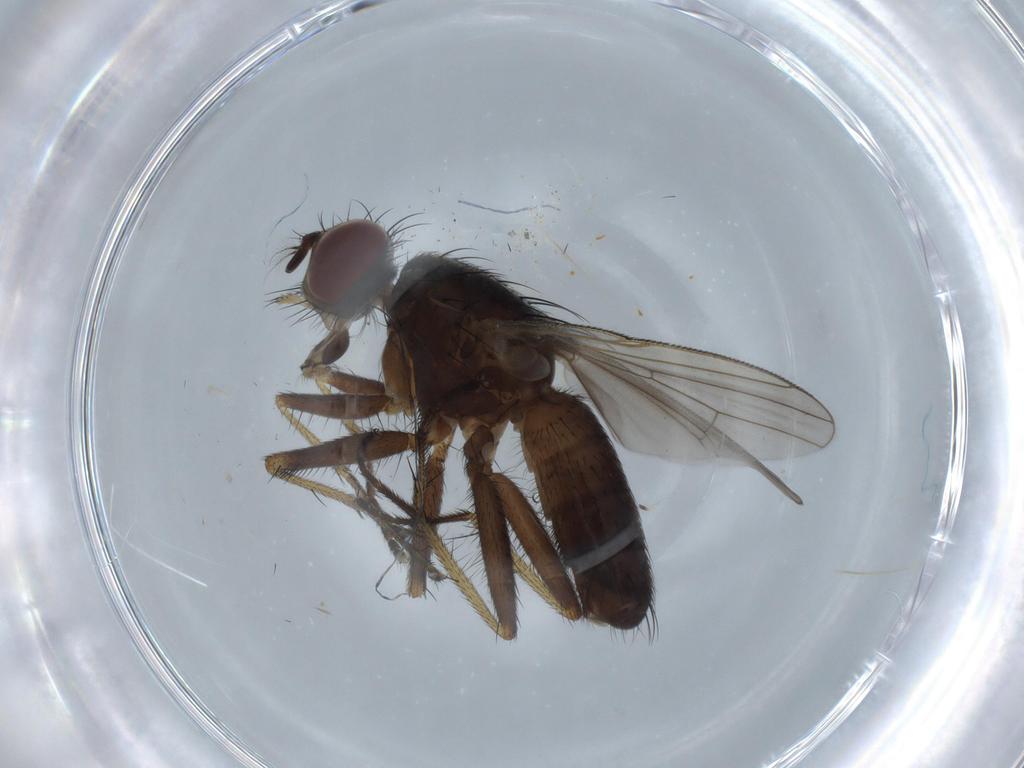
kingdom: Animalia
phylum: Arthropoda
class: Insecta
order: Diptera
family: Muscidae
